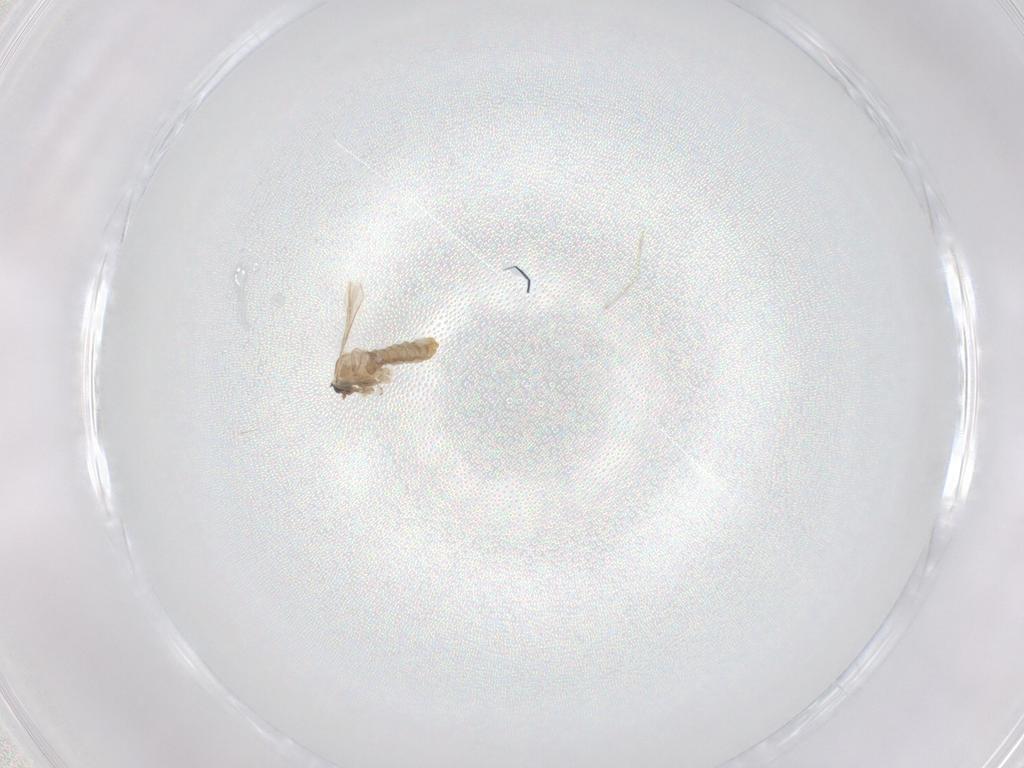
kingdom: Animalia
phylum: Arthropoda
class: Insecta
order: Diptera
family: Cecidomyiidae
